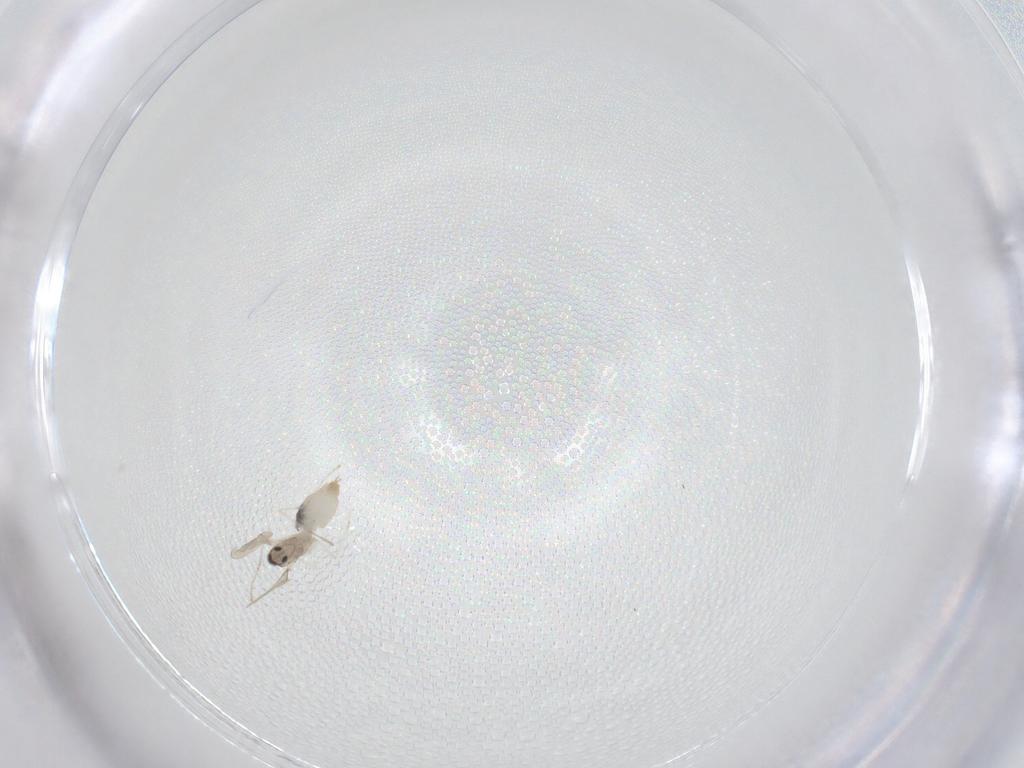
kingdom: Animalia
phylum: Arthropoda
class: Insecta
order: Diptera
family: Cecidomyiidae
